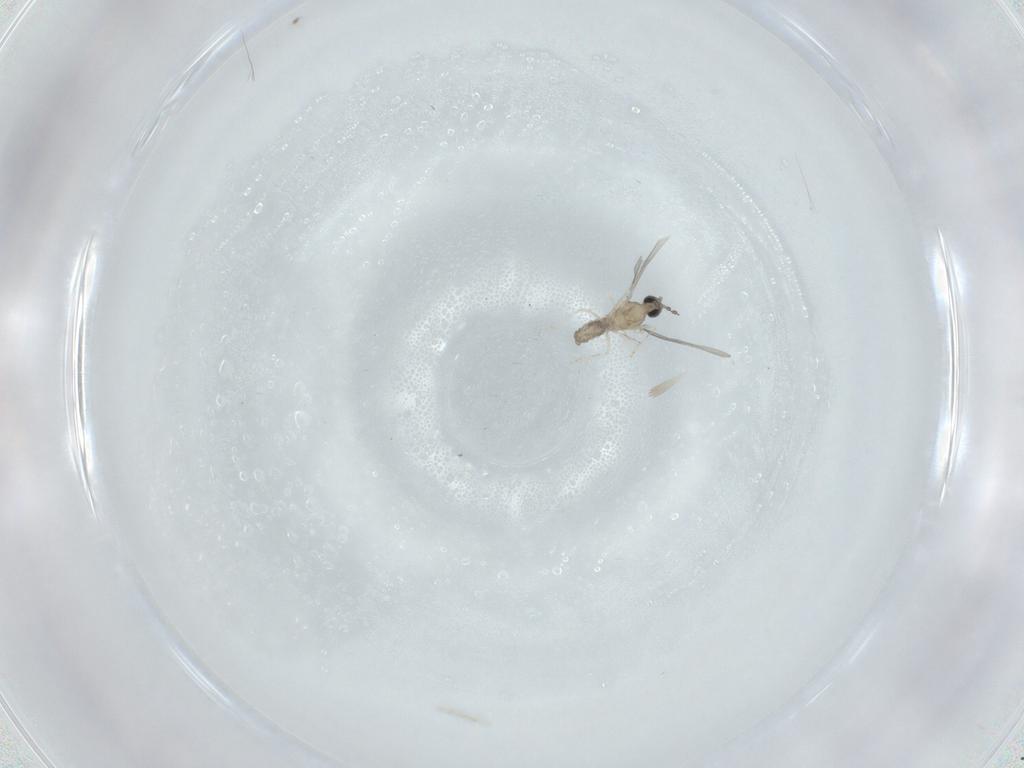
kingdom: Animalia
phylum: Arthropoda
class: Insecta
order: Diptera
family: Cecidomyiidae
